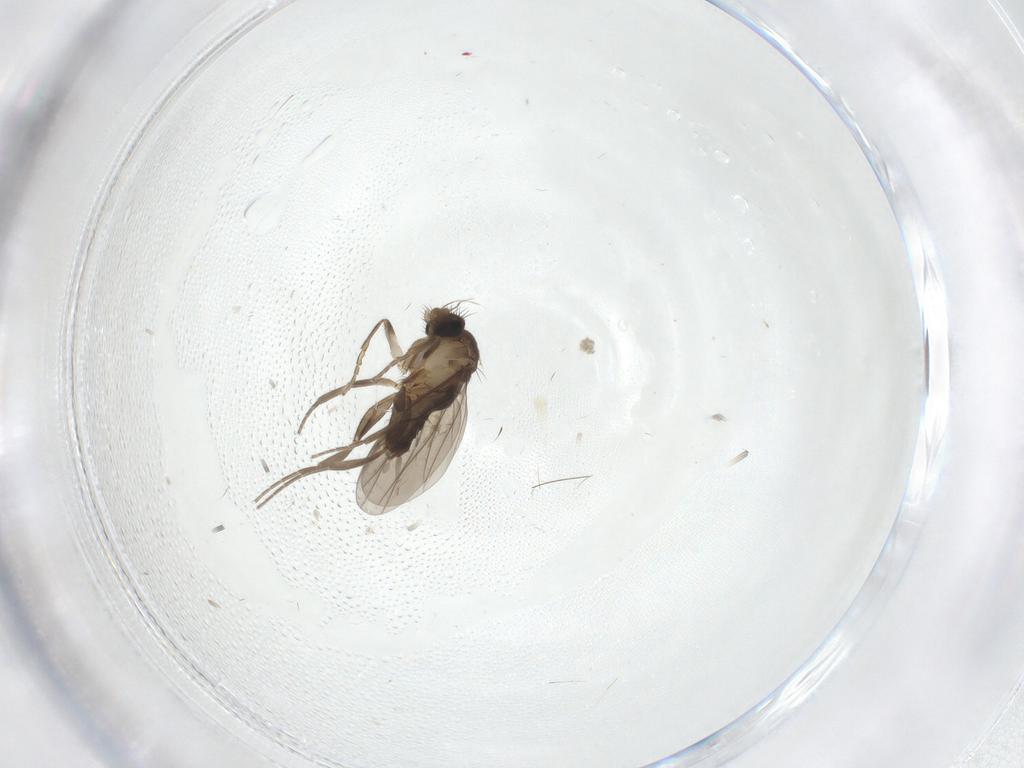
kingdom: Animalia
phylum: Arthropoda
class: Insecta
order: Diptera
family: Sciaridae
